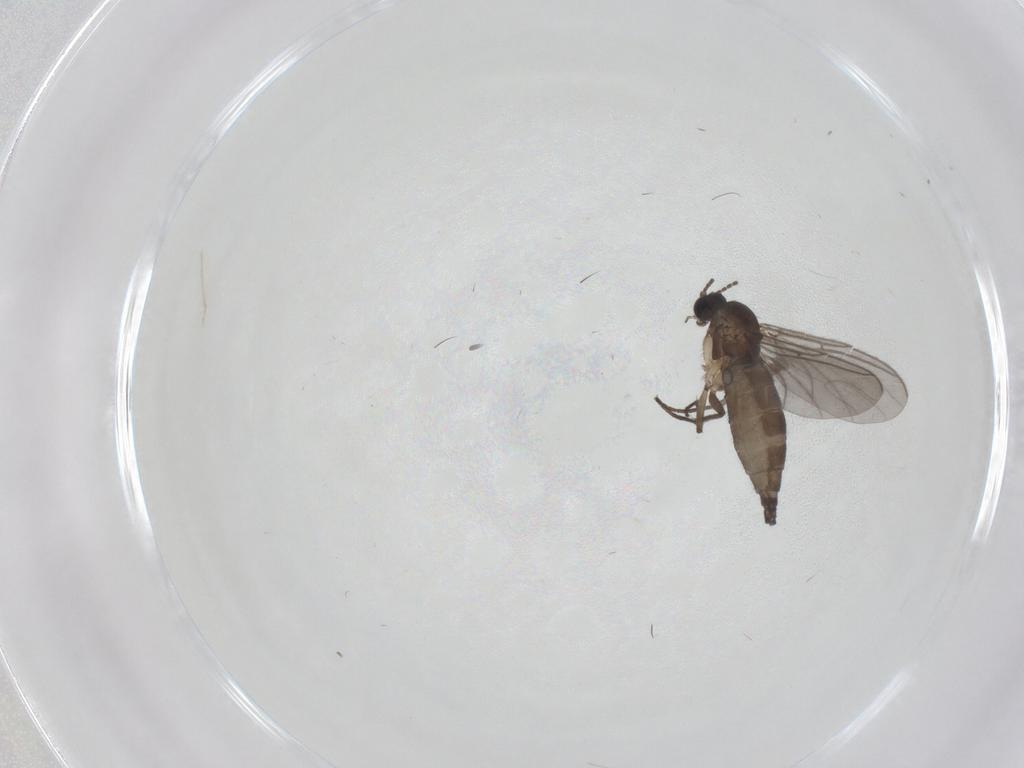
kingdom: Animalia
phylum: Arthropoda
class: Insecta
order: Diptera
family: Sciaridae
